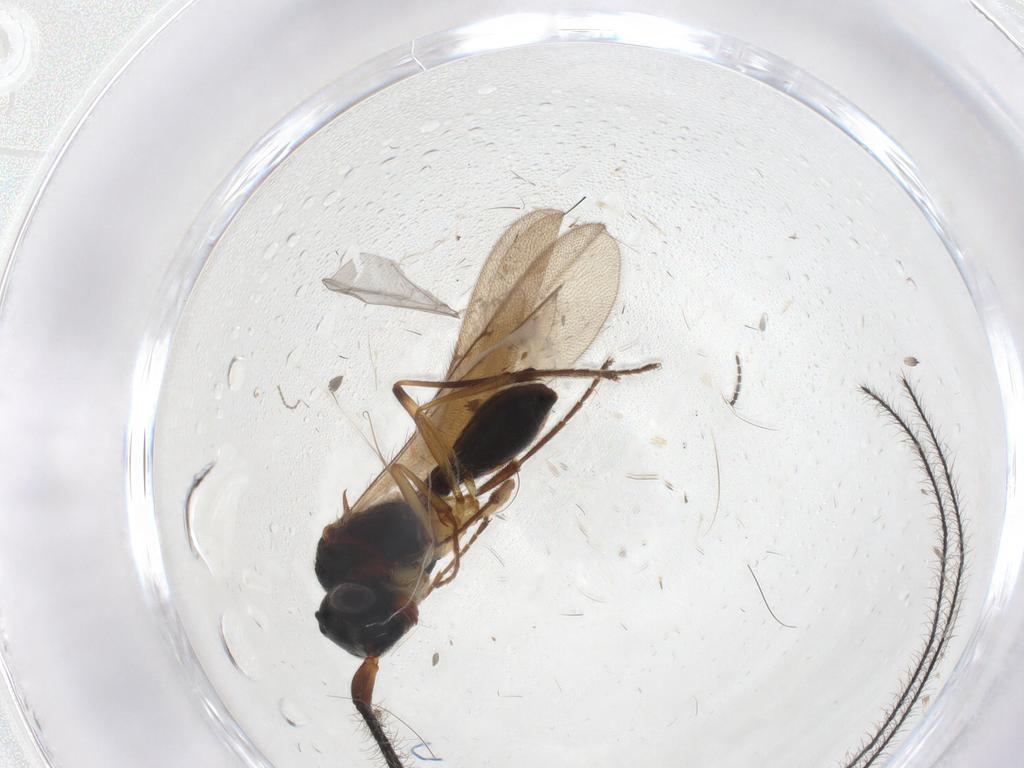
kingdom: Animalia
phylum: Arthropoda
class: Insecta
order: Hymenoptera
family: Scelionidae
